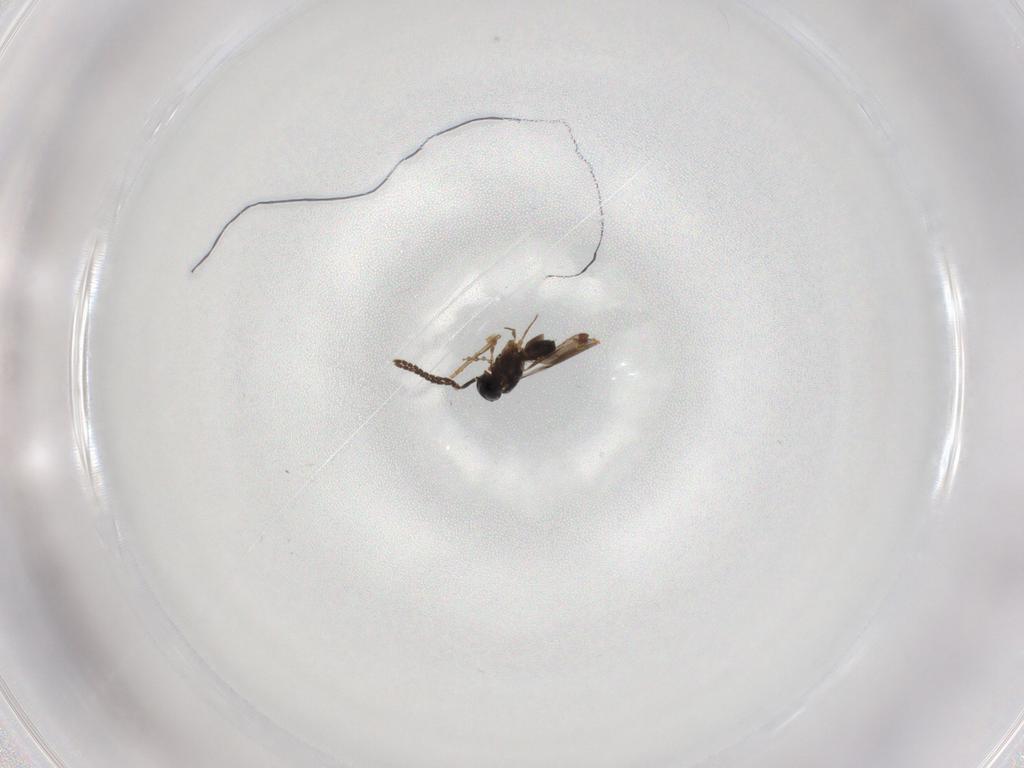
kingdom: Animalia
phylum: Arthropoda
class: Insecta
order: Hymenoptera
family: Scelionidae
